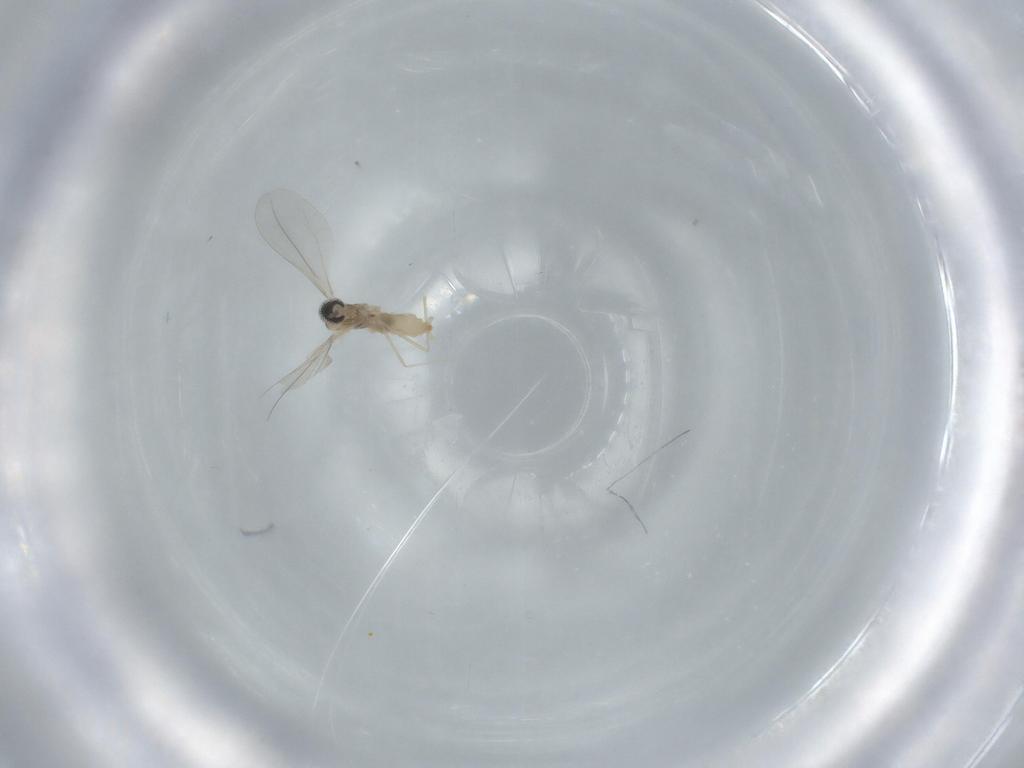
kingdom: Animalia
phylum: Arthropoda
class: Insecta
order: Diptera
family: Cecidomyiidae
